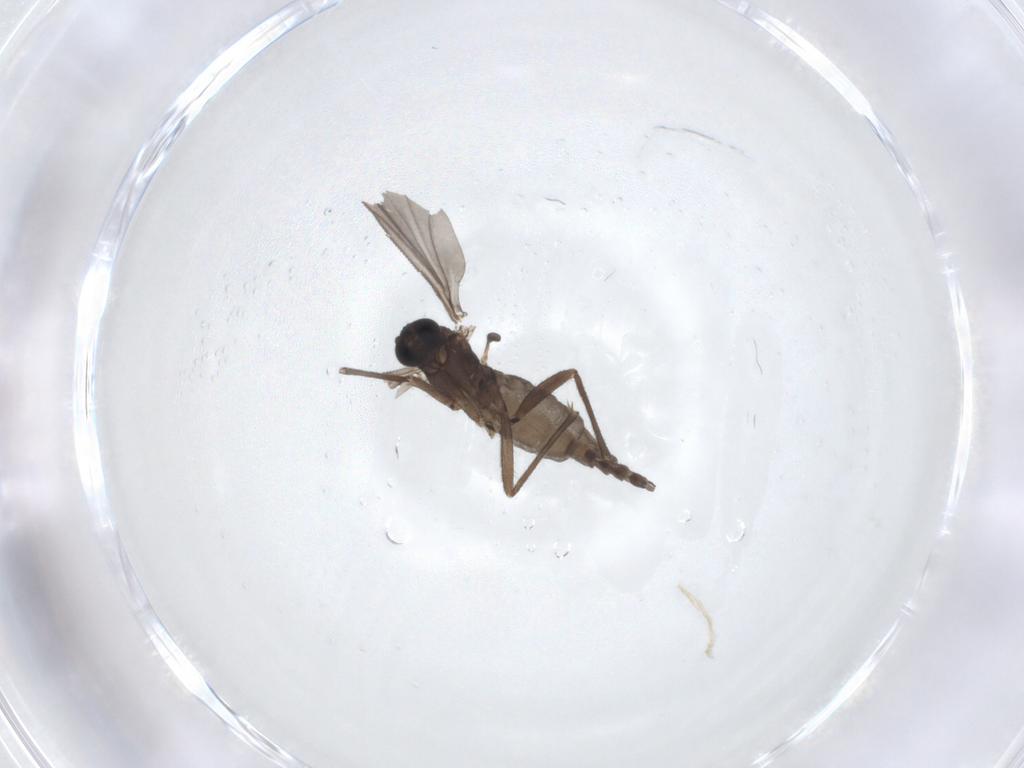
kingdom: Animalia
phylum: Arthropoda
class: Insecta
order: Diptera
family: Sciaridae
